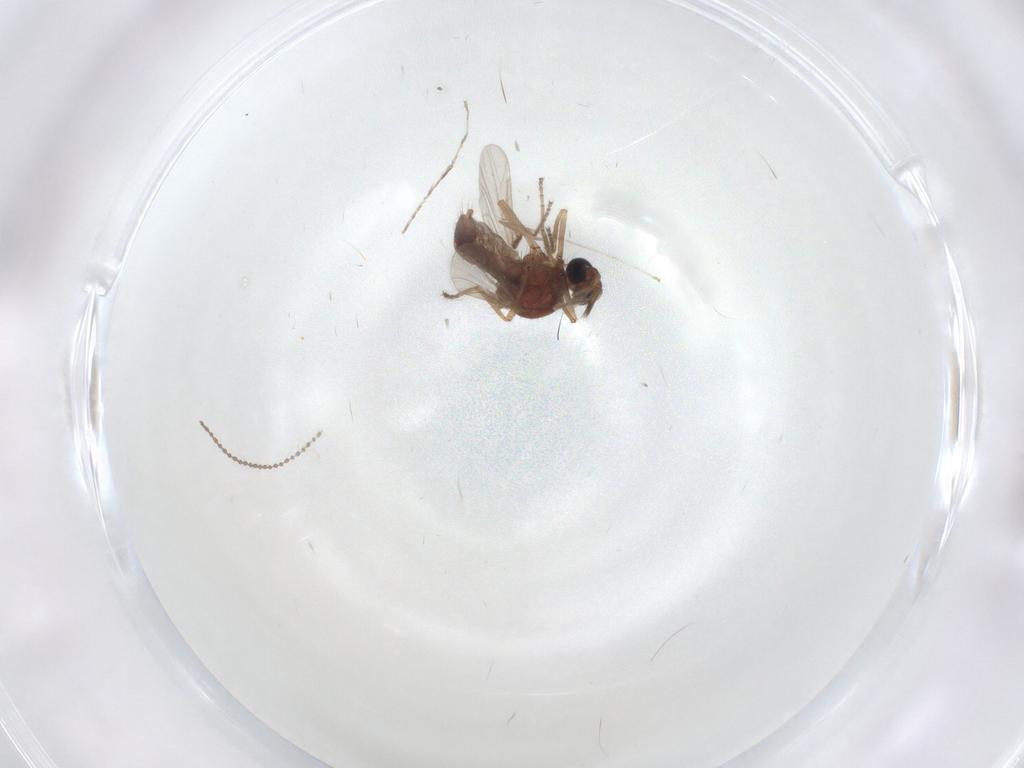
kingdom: Animalia
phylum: Arthropoda
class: Insecta
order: Diptera
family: Ceratopogonidae
